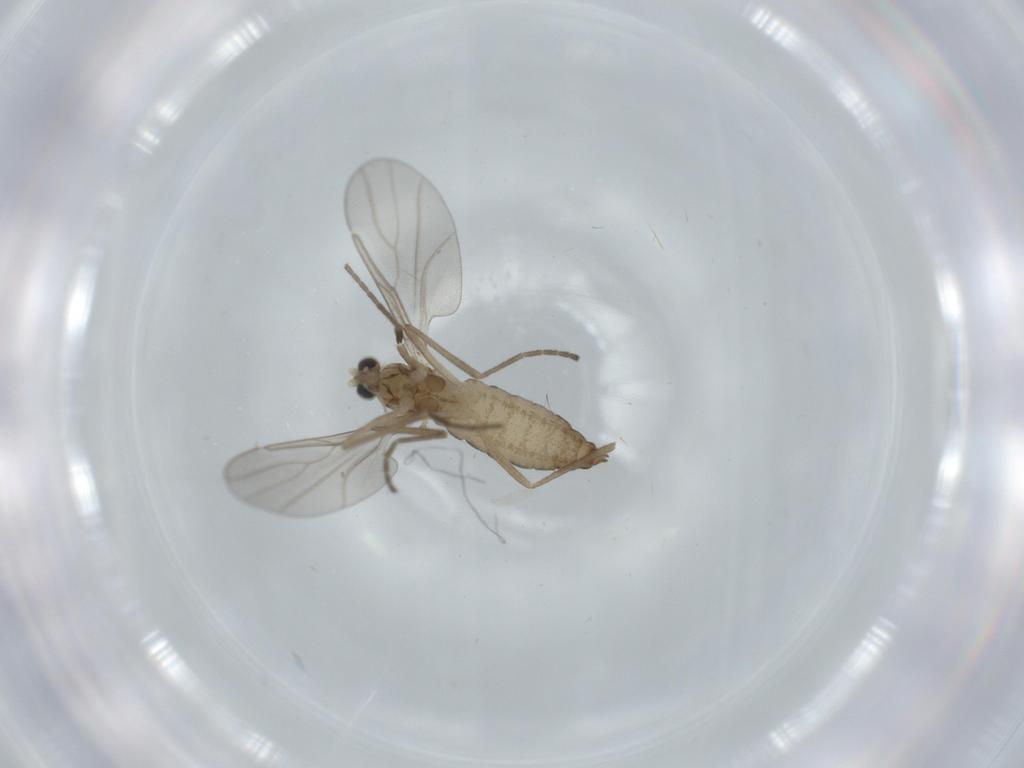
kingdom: Animalia
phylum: Arthropoda
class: Insecta
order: Diptera
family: Cecidomyiidae
